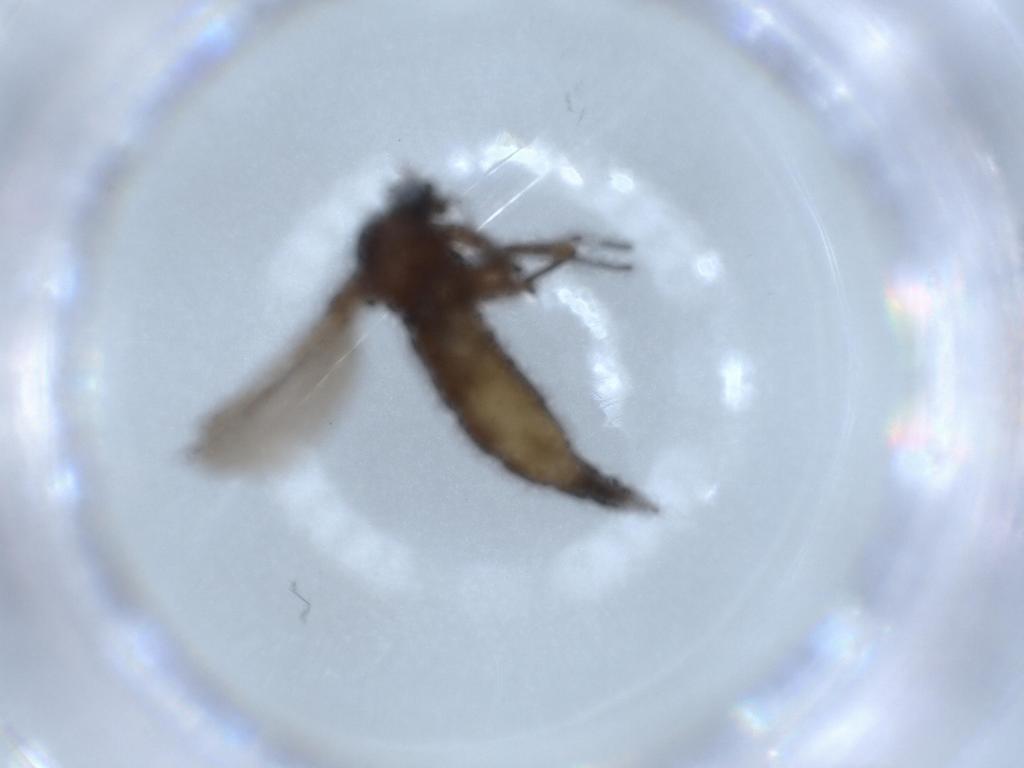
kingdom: Animalia
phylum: Arthropoda
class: Insecta
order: Diptera
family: Sciaridae
